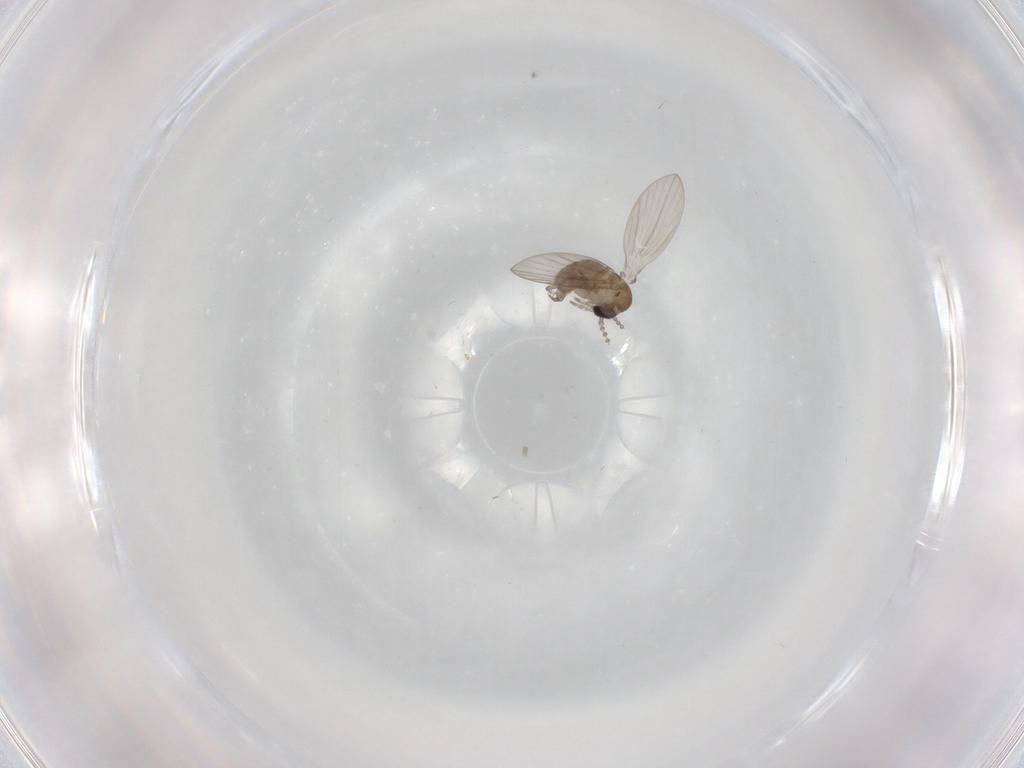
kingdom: Animalia
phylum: Arthropoda
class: Insecta
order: Diptera
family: Psychodidae
